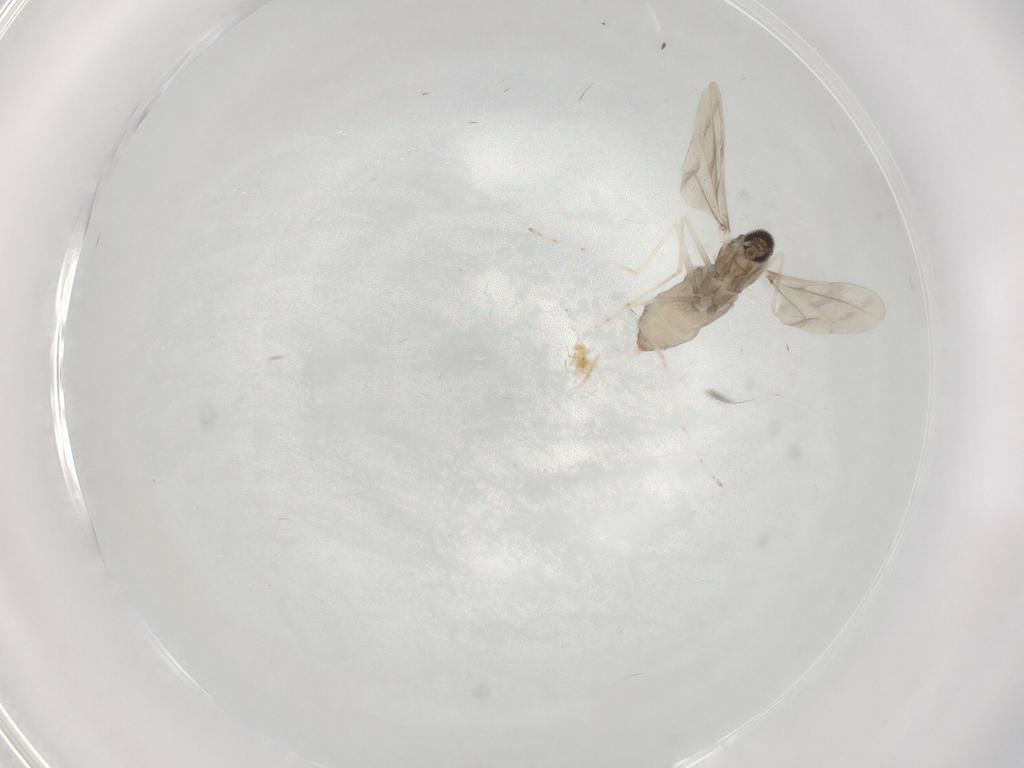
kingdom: Animalia
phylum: Arthropoda
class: Insecta
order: Diptera
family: Cecidomyiidae
